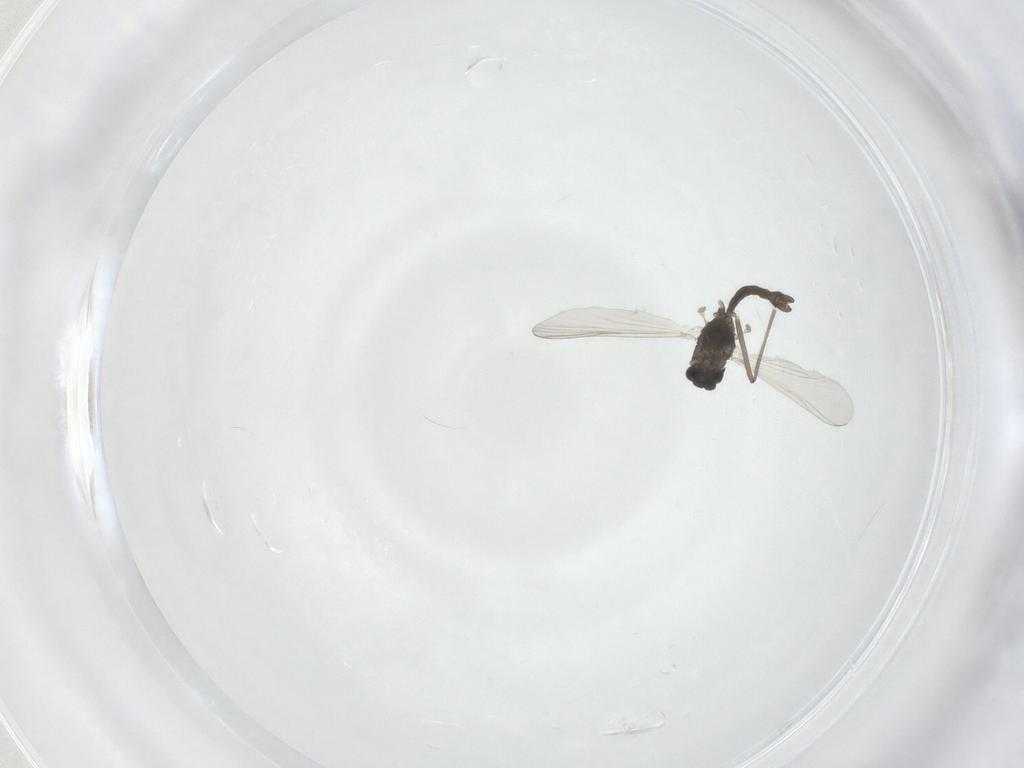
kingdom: Animalia
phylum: Arthropoda
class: Insecta
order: Diptera
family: Chironomidae
